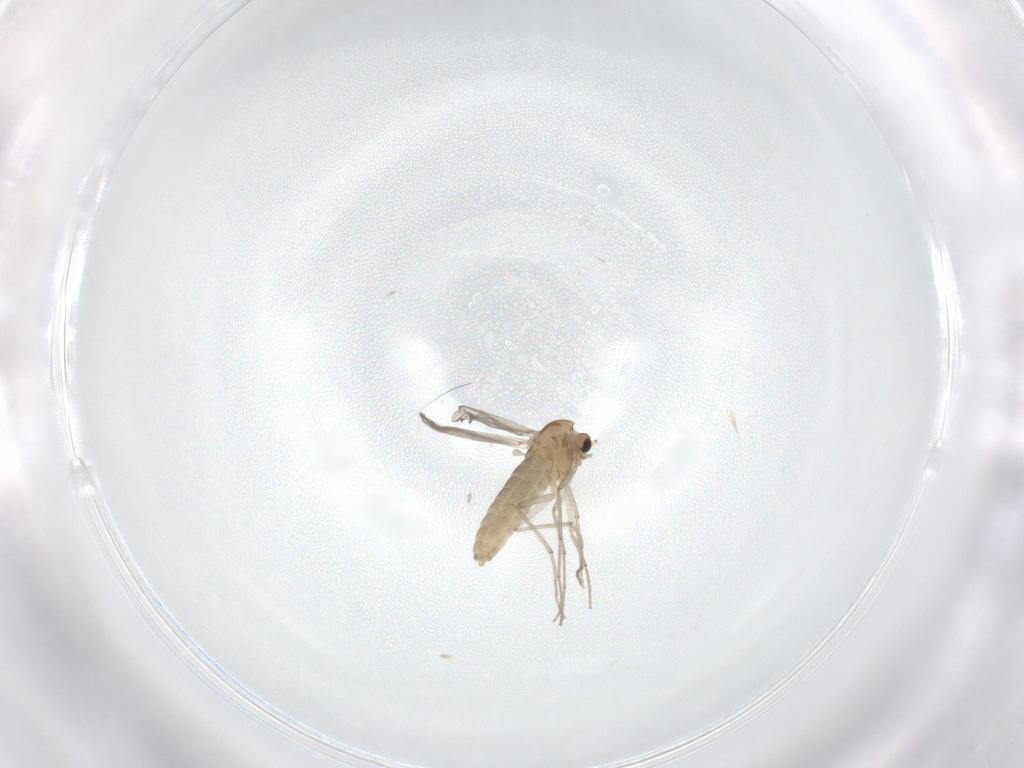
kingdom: Animalia
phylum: Arthropoda
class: Insecta
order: Diptera
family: Chironomidae
